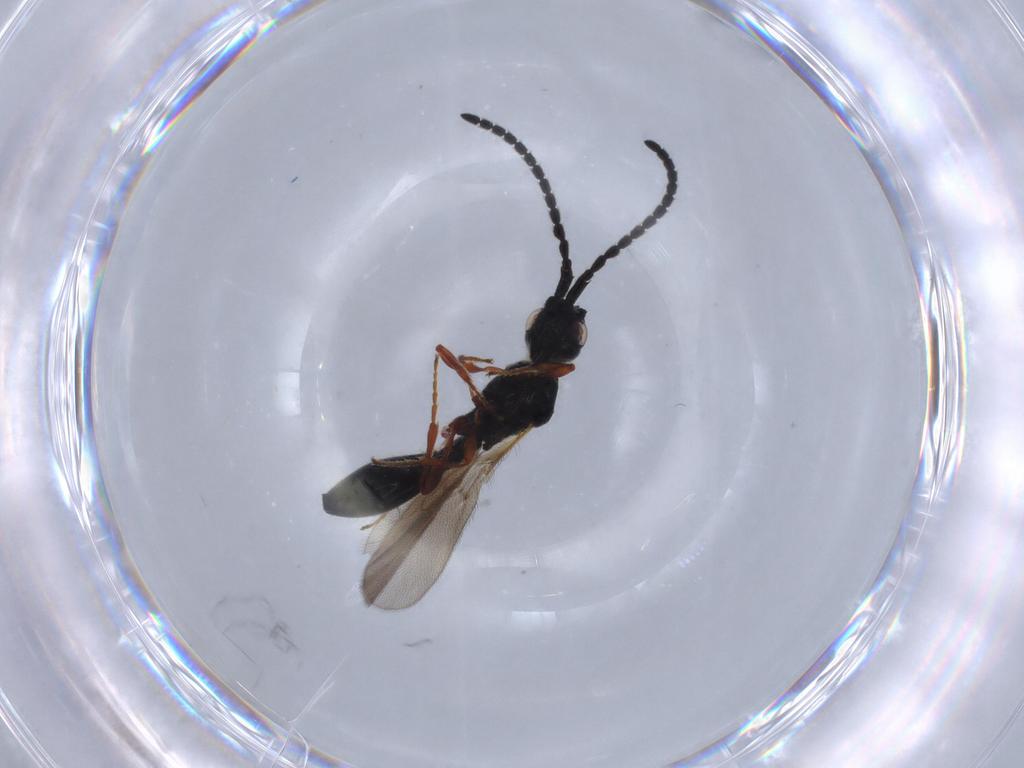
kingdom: Animalia
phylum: Arthropoda
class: Insecta
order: Hymenoptera
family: Diapriidae
